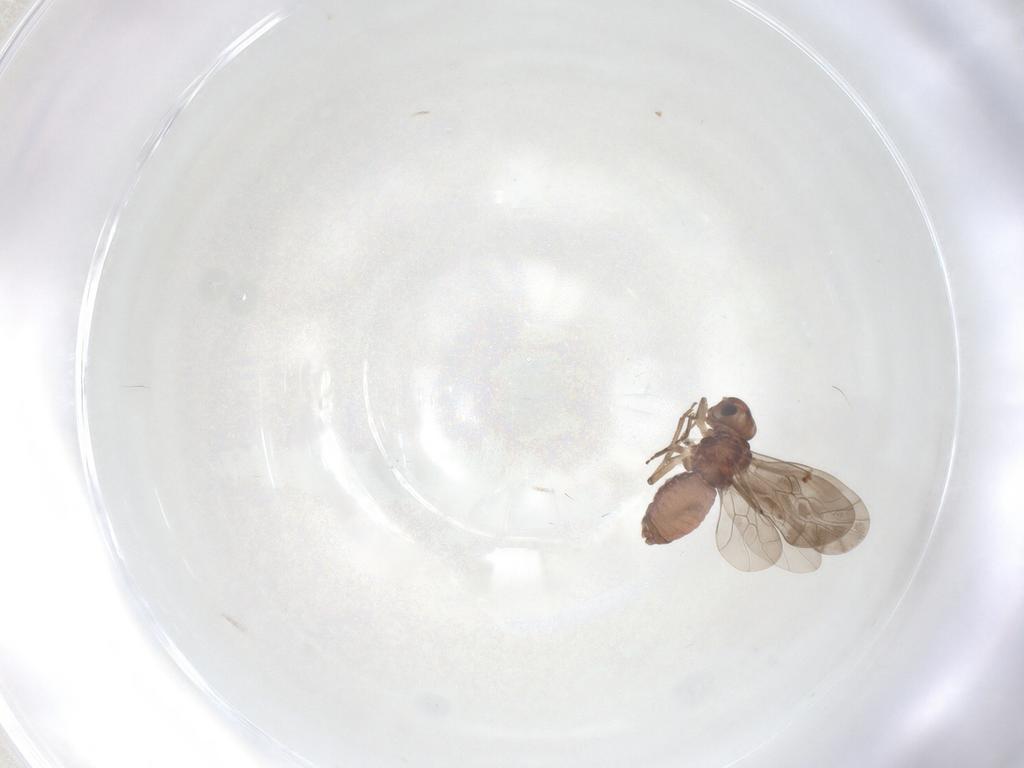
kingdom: Animalia
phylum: Arthropoda
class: Insecta
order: Psocodea
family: Lachesillidae
